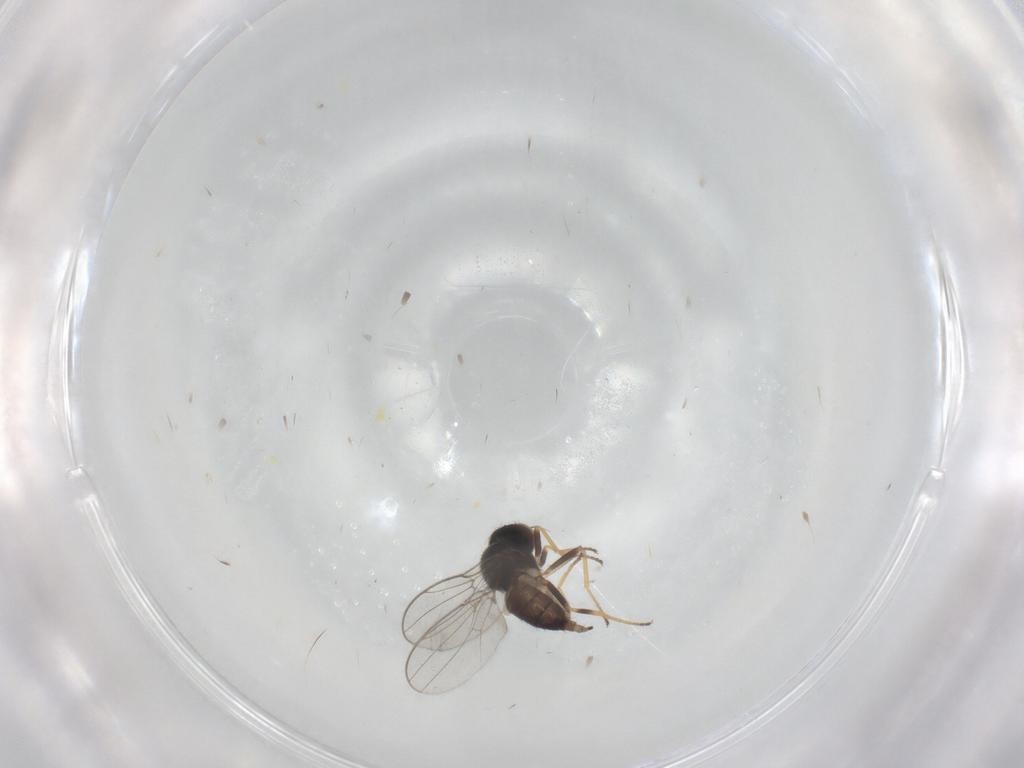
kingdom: Animalia
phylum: Arthropoda
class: Insecta
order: Diptera
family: Chloropidae
